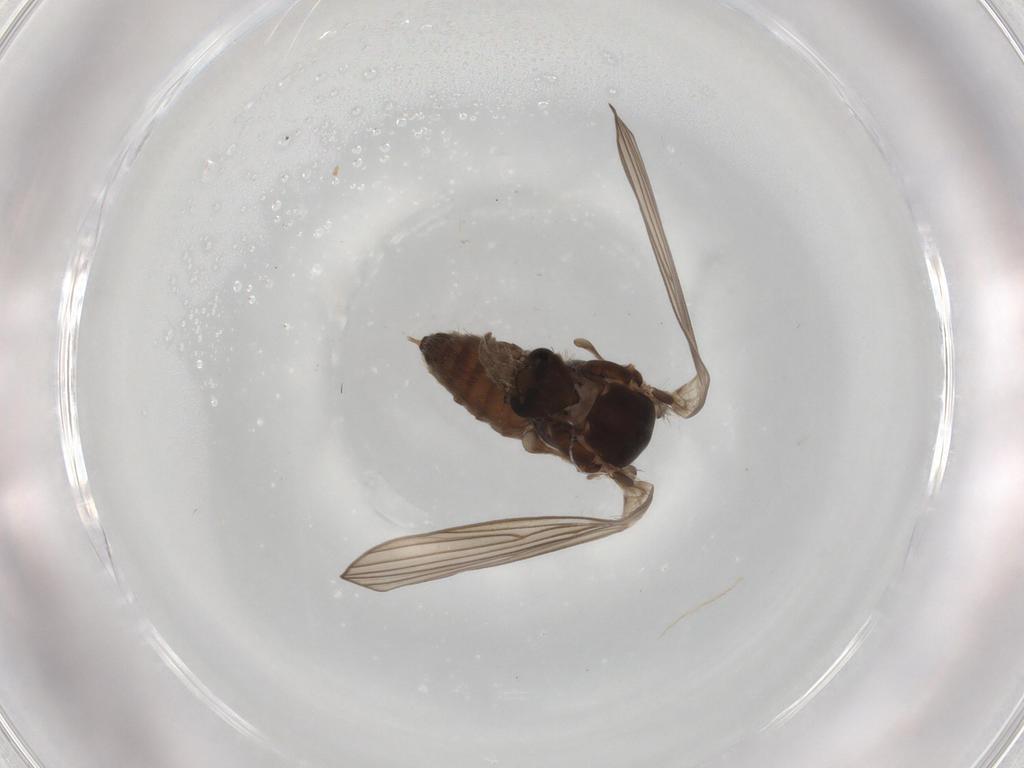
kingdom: Animalia
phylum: Arthropoda
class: Insecta
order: Diptera
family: Psychodidae
